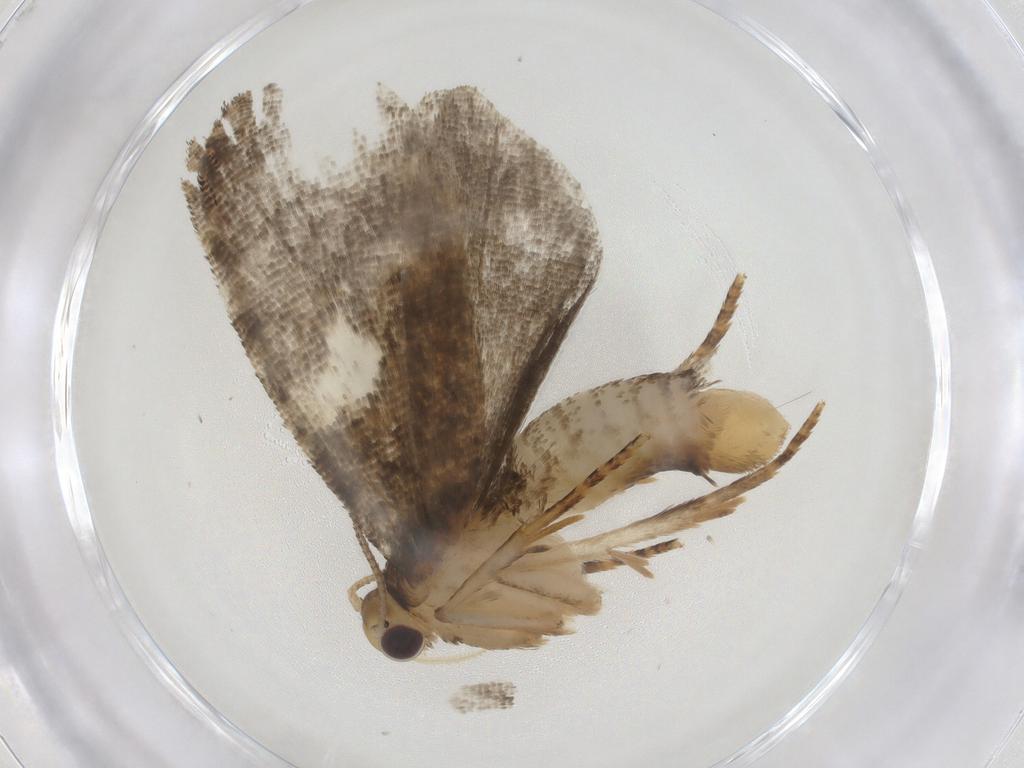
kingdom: Animalia
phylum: Arthropoda
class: Insecta
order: Lepidoptera
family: Tortricidae
